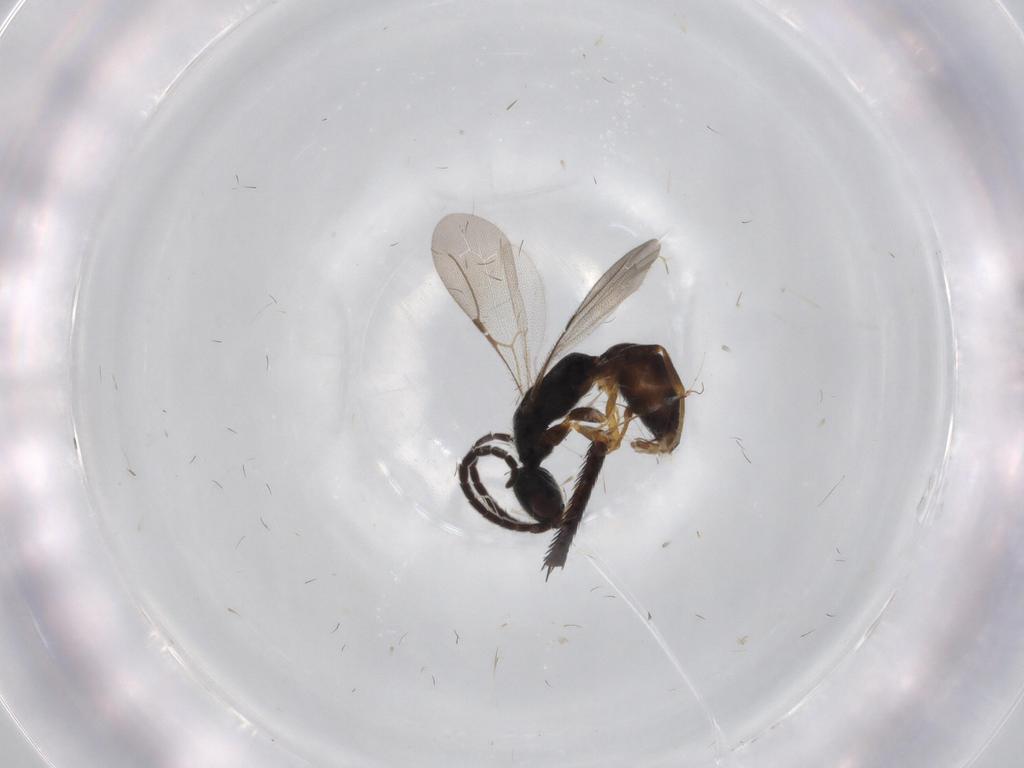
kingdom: Animalia
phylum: Arthropoda
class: Insecta
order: Hymenoptera
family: Bethylidae
